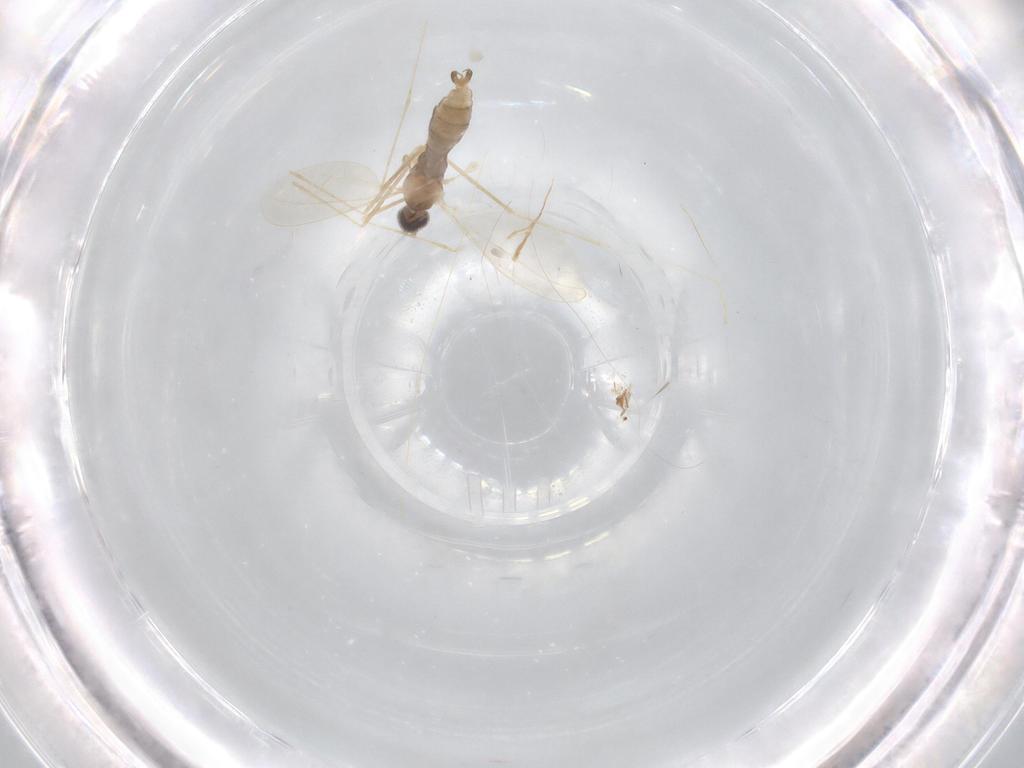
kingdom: Animalia
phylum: Arthropoda
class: Insecta
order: Diptera
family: Cecidomyiidae
